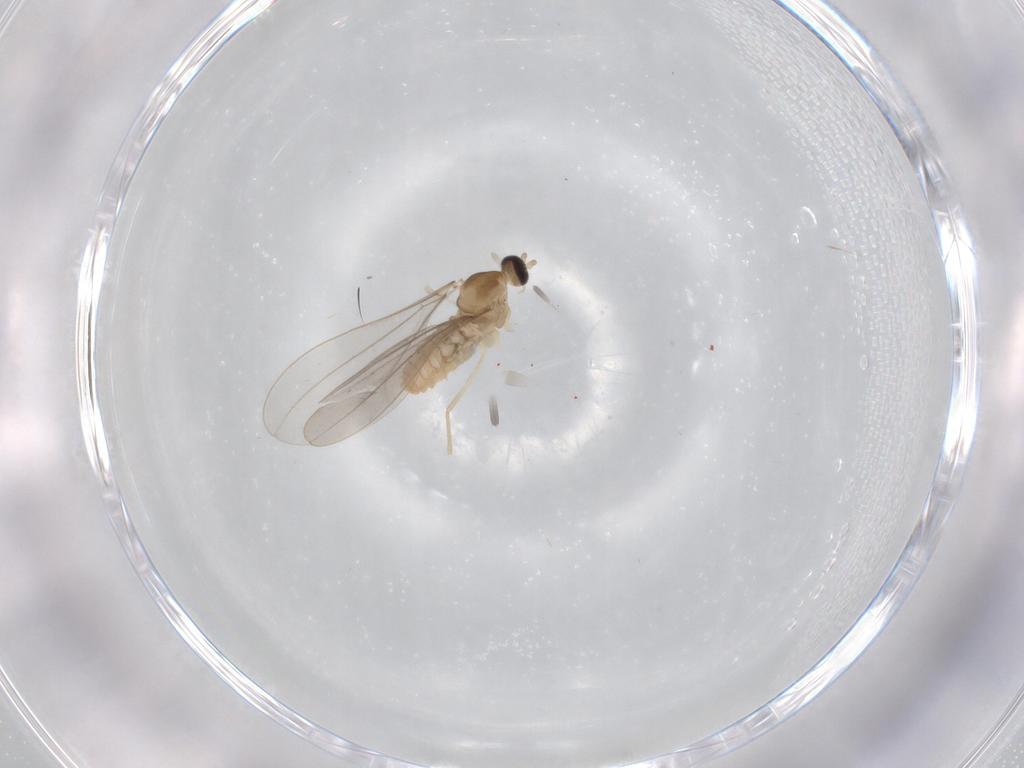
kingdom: Animalia
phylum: Arthropoda
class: Insecta
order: Diptera
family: Cecidomyiidae
